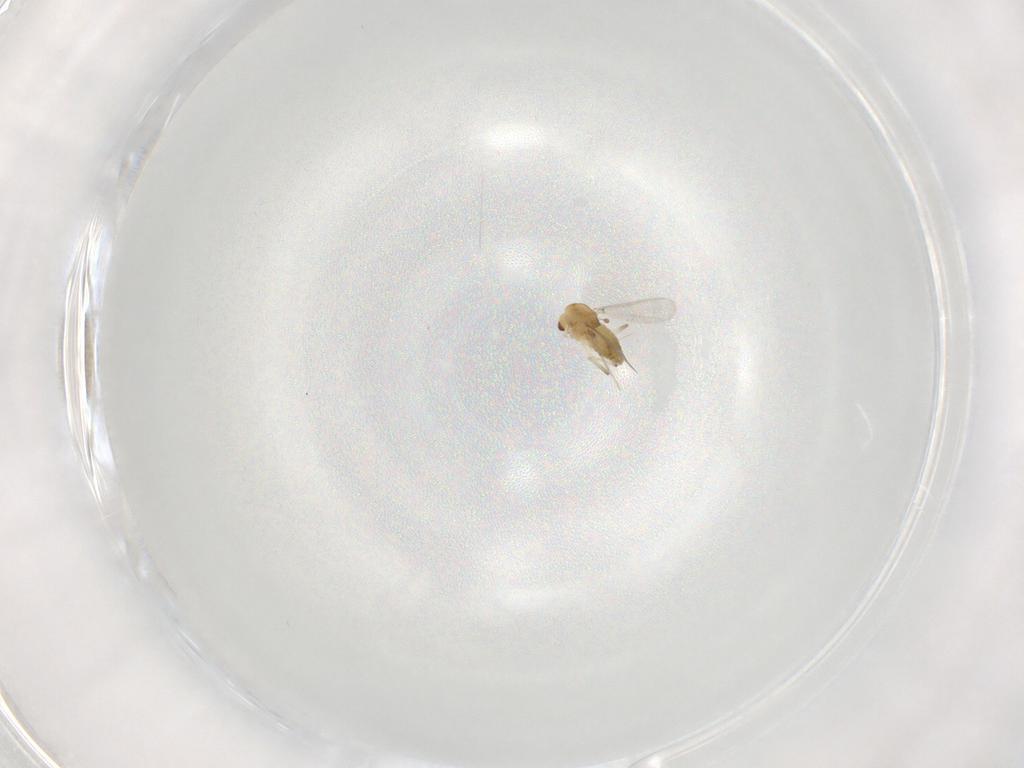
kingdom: Animalia
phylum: Arthropoda
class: Insecta
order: Diptera
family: Chironomidae
